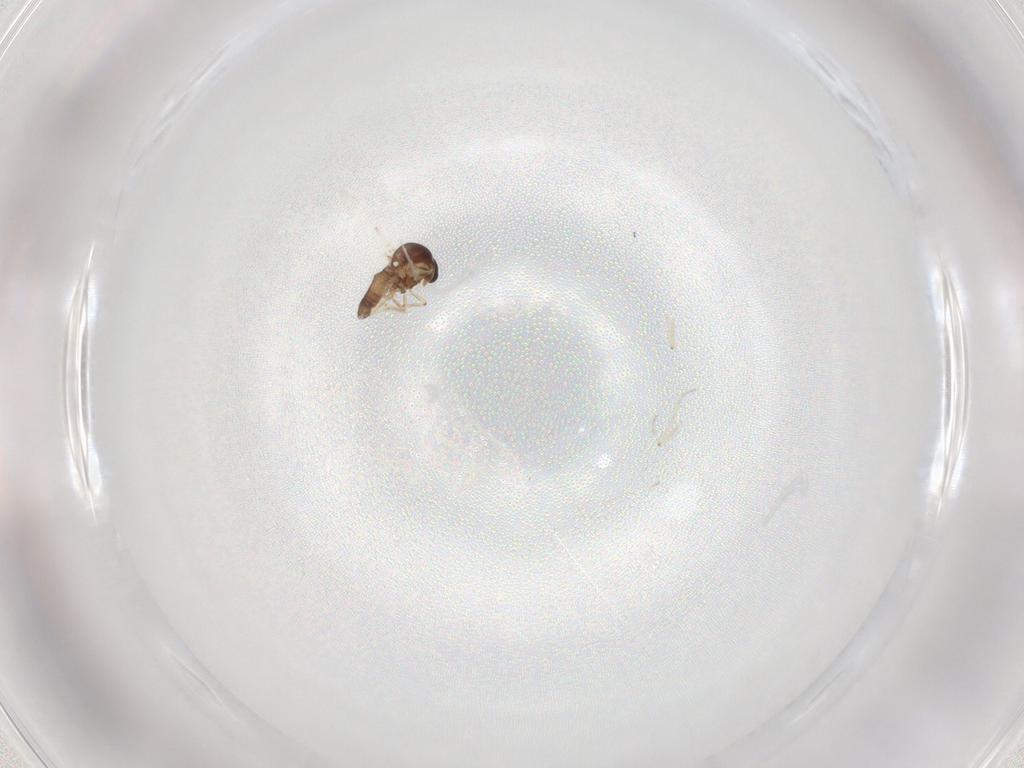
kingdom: Animalia
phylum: Arthropoda
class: Insecta
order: Diptera
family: Ceratopogonidae
